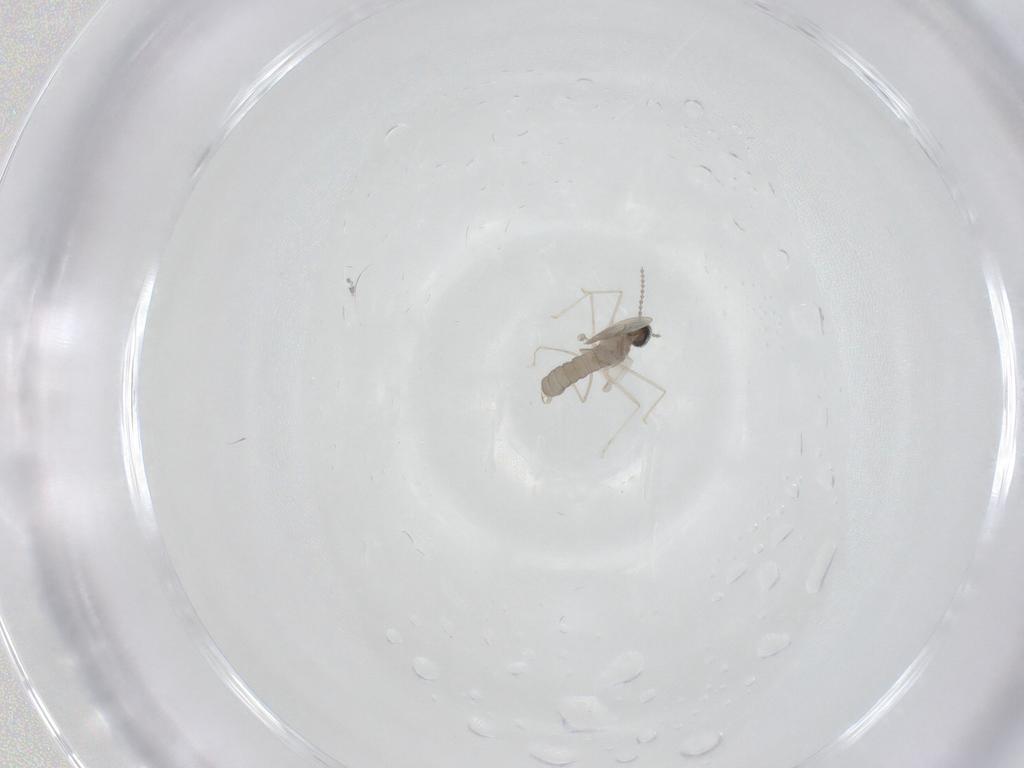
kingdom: Animalia
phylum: Arthropoda
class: Insecta
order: Diptera
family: Cecidomyiidae
